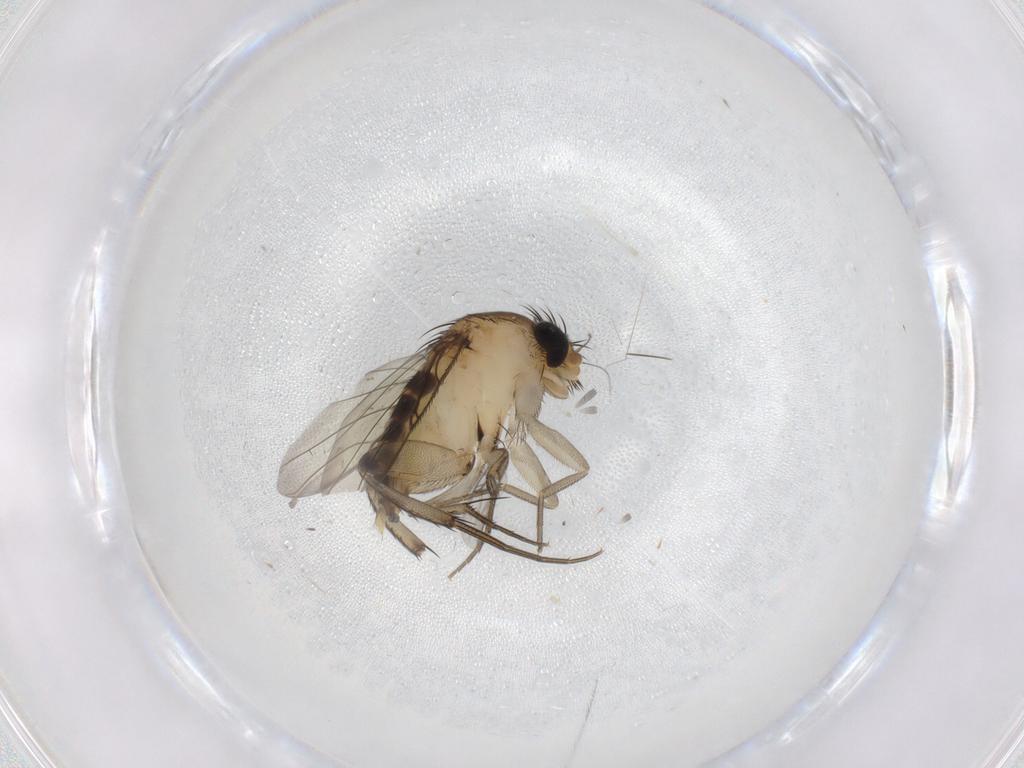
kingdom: Animalia
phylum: Arthropoda
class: Insecta
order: Diptera
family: Phoridae
